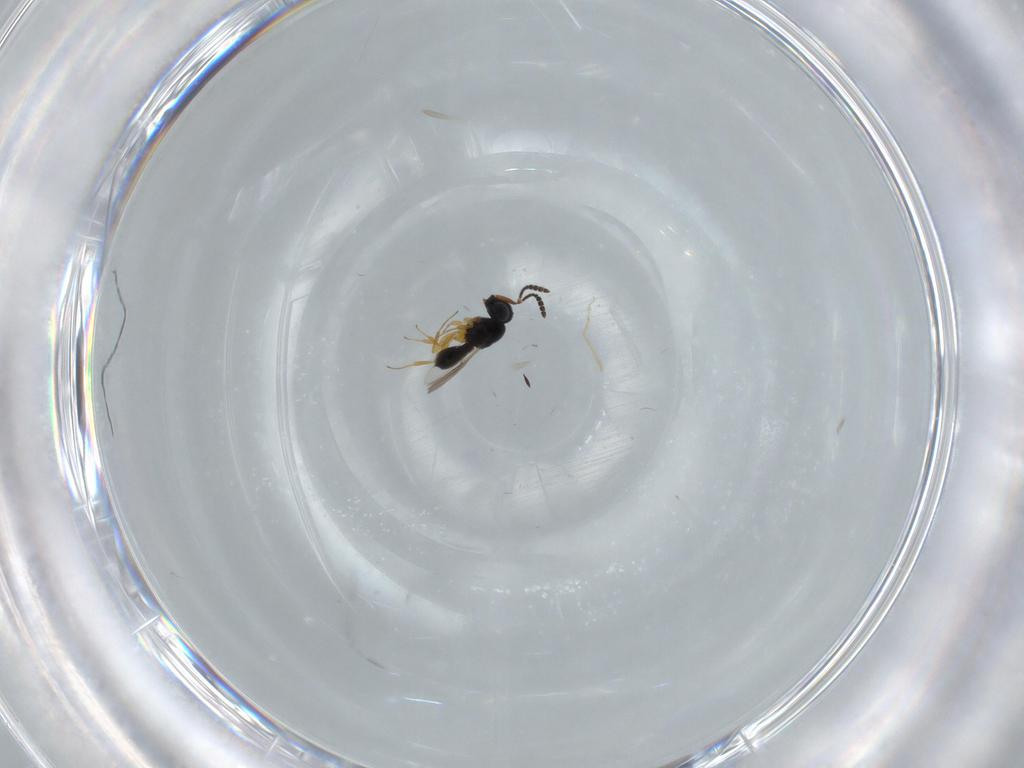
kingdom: Animalia
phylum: Arthropoda
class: Insecta
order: Hymenoptera
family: Scelionidae
